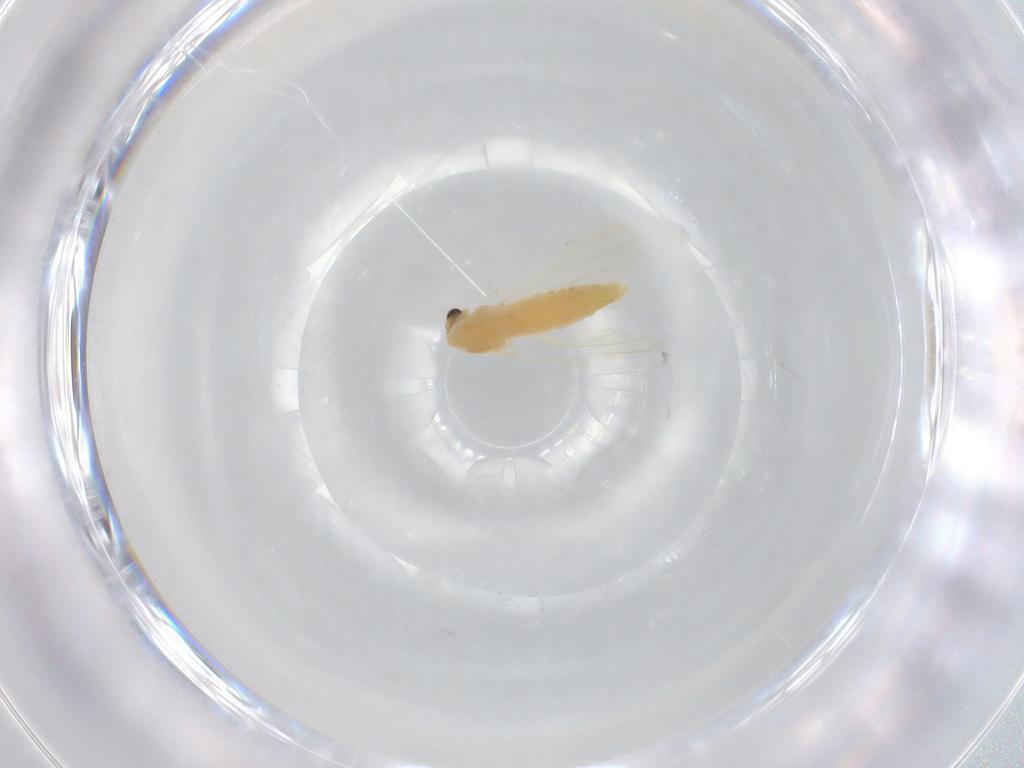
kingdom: Animalia
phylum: Arthropoda
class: Insecta
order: Diptera
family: Chironomidae
